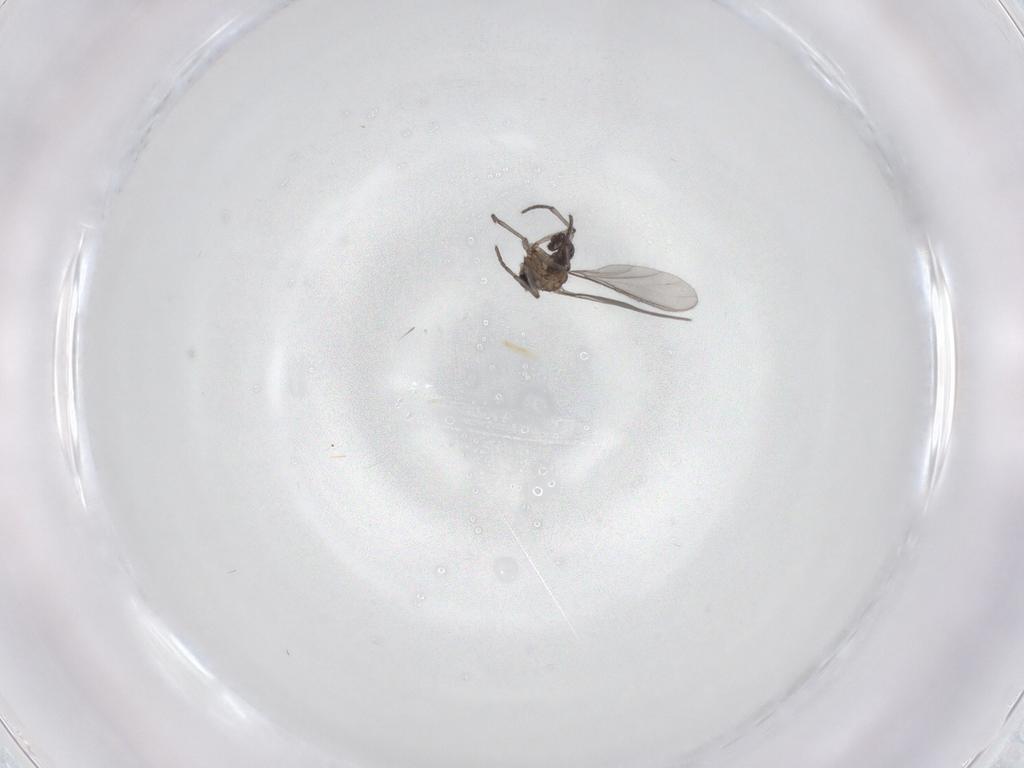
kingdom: Animalia
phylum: Arthropoda
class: Insecta
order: Diptera
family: Sciaridae
